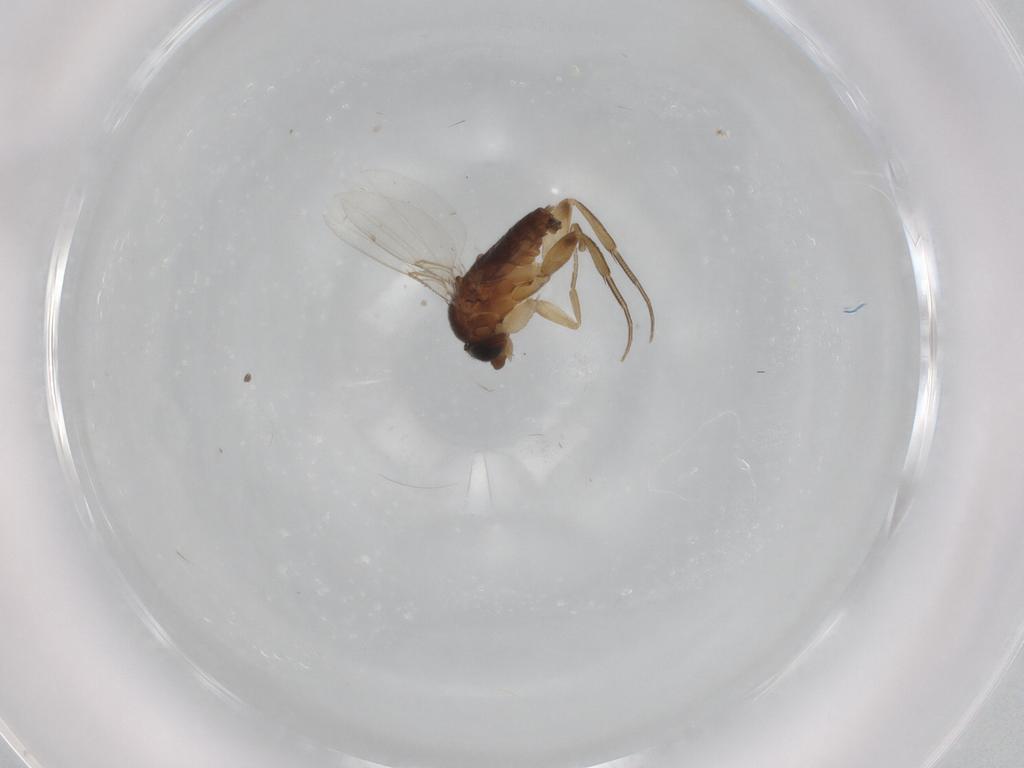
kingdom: Animalia
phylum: Arthropoda
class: Insecta
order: Diptera
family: Phoridae
